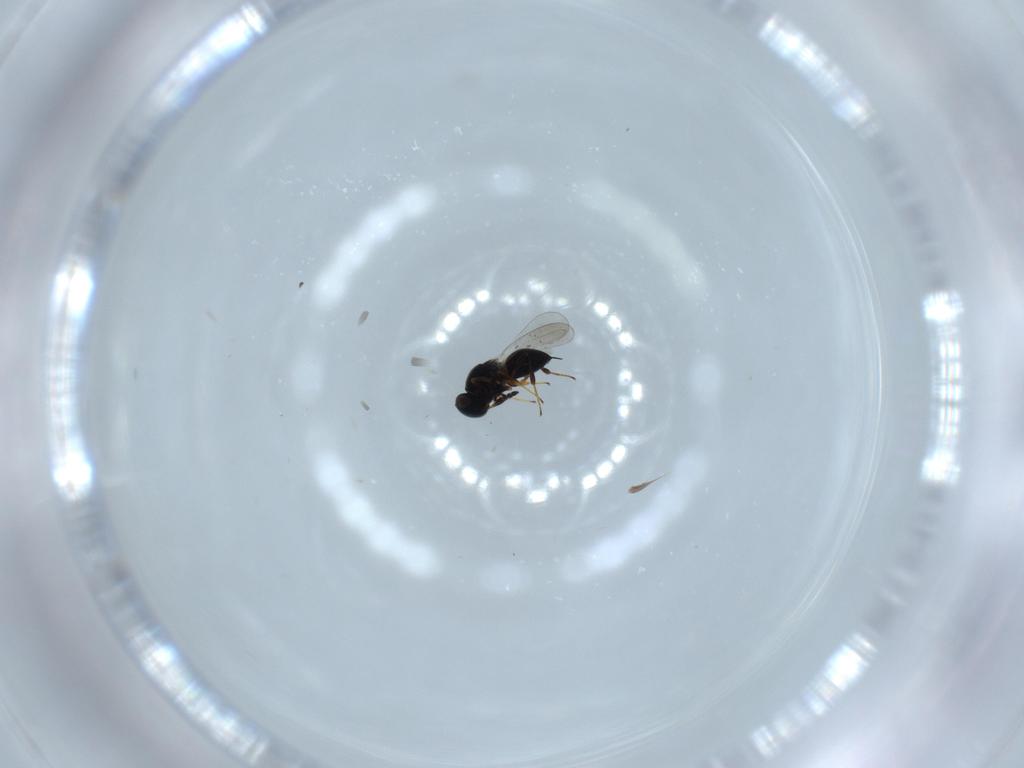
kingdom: Animalia
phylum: Arthropoda
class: Insecta
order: Hymenoptera
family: Platygastridae
